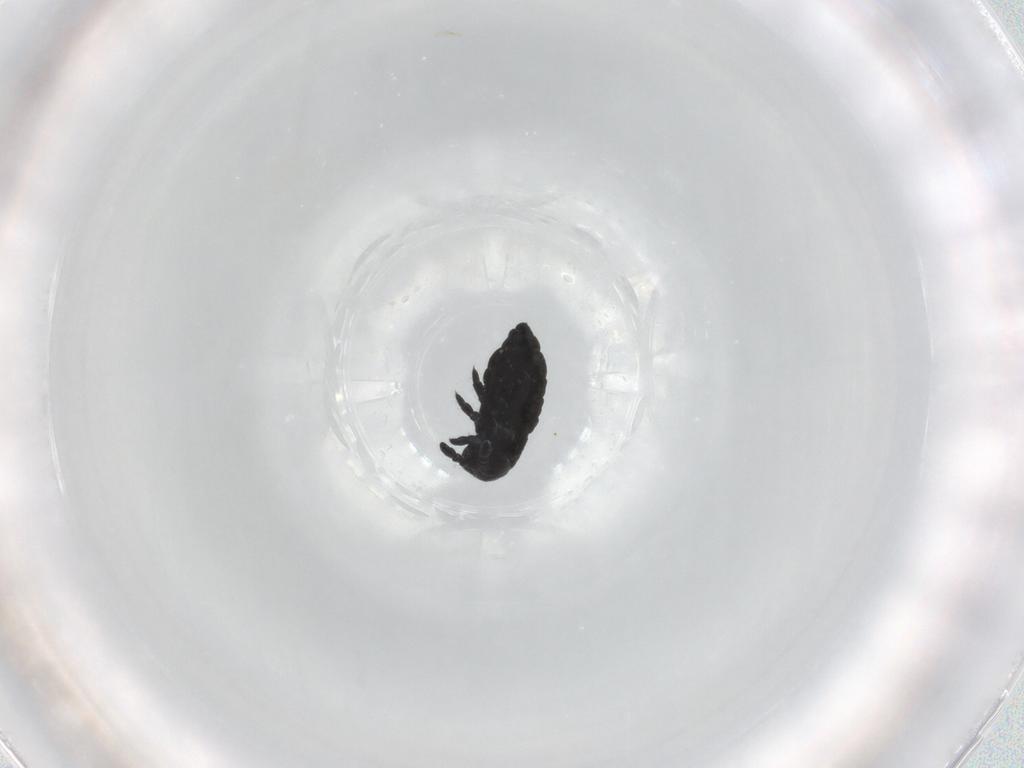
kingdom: Animalia
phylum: Arthropoda
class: Collembola
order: Poduromorpha
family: Hypogastruridae
